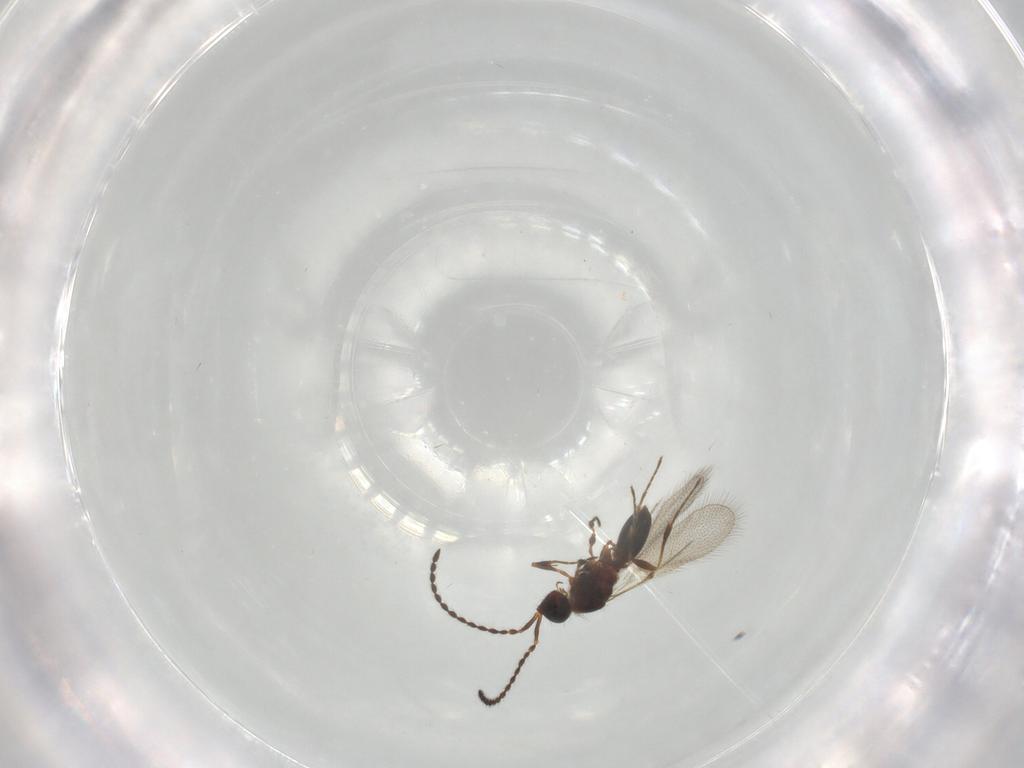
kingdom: Animalia
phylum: Arthropoda
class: Insecta
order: Hymenoptera
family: Diapriidae
